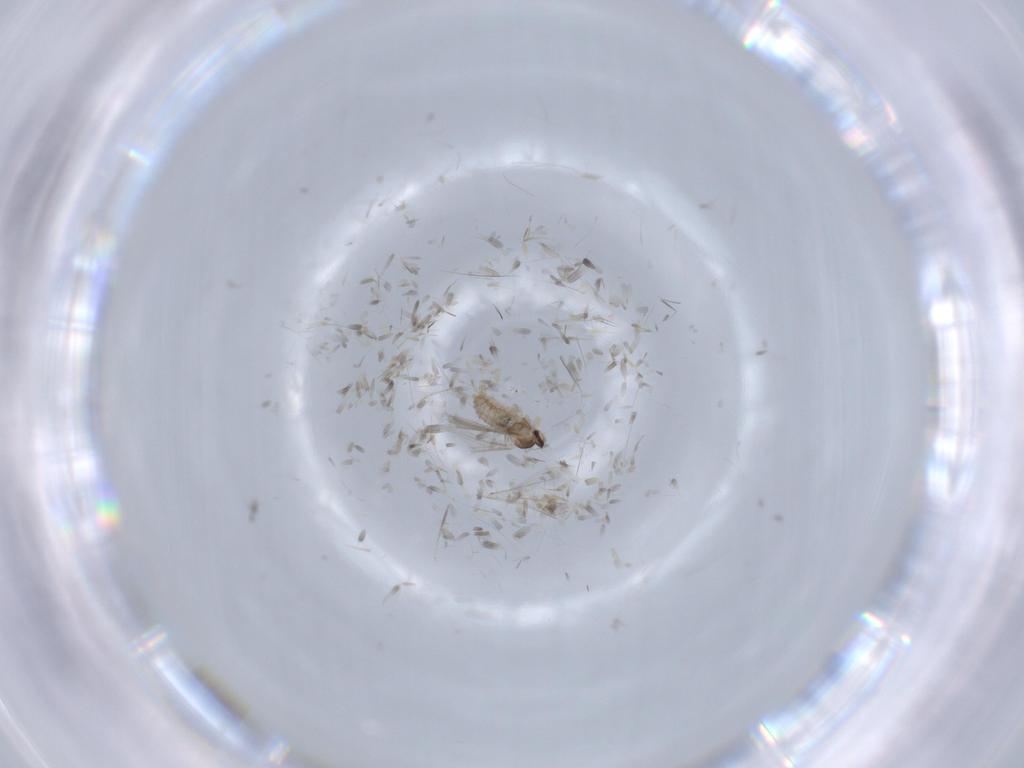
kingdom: Animalia
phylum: Arthropoda
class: Insecta
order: Diptera
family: Cecidomyiidae
